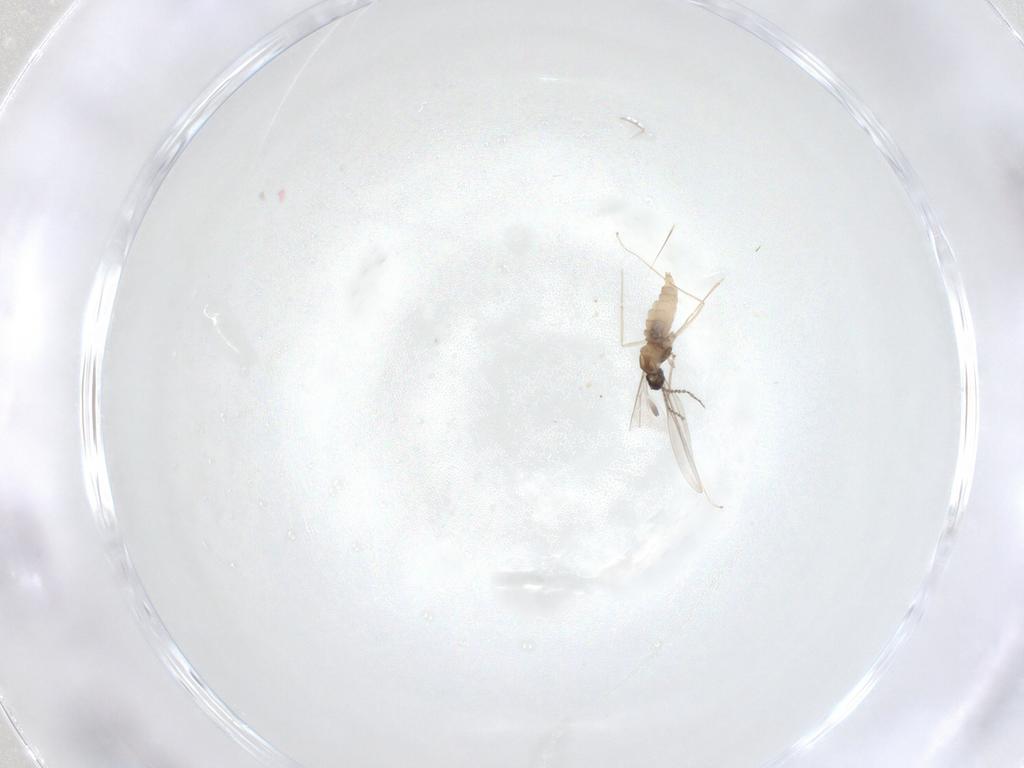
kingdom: Animalia
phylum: Arthropoda
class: Insecta
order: Diptera
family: Cecidomyiidae
